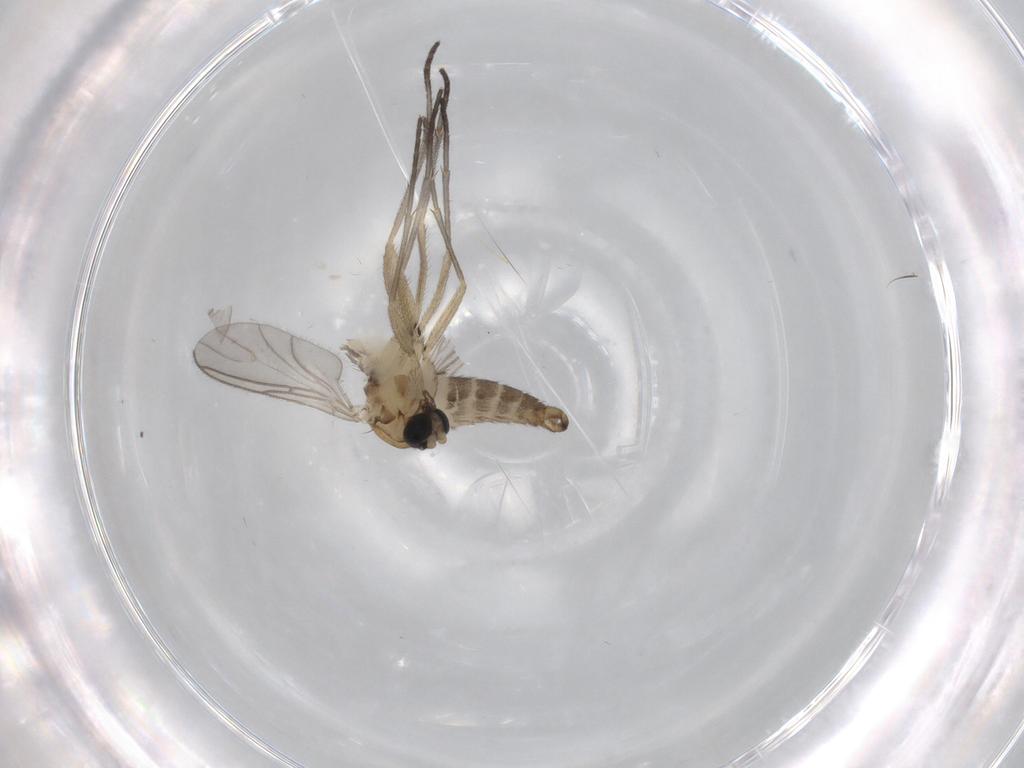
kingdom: Animalia
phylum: Arthropoda
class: Insecta
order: Diptera
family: Sciaridae
